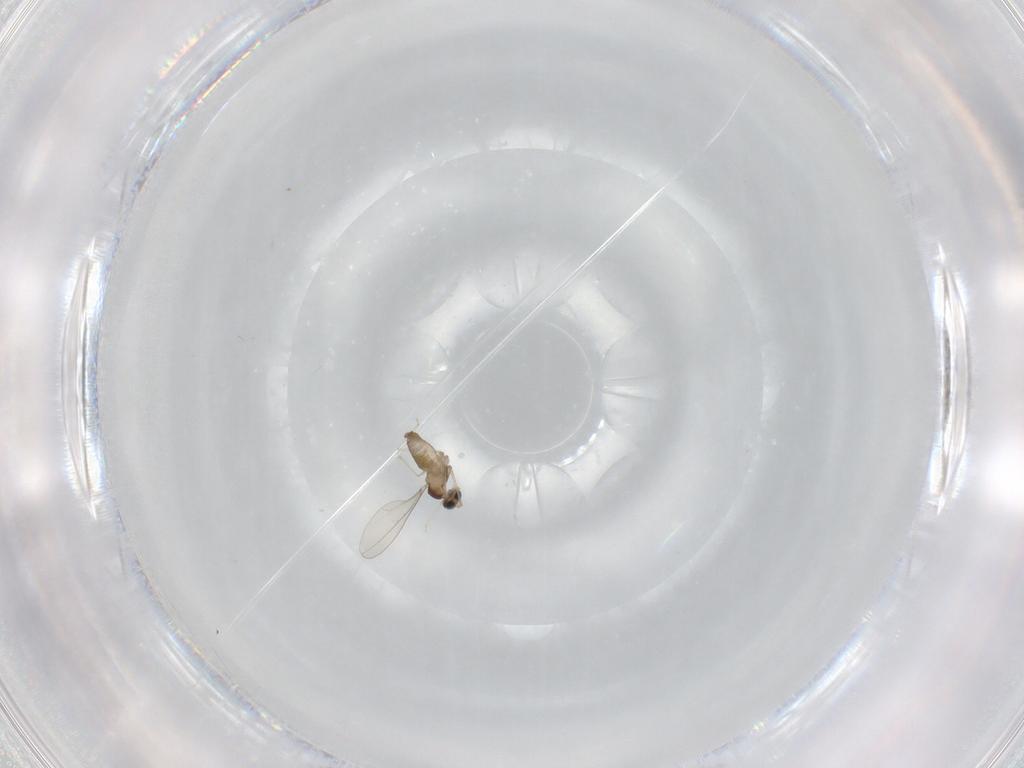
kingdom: Animalia
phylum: Arthropoda
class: Insecta
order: Diptera
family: Cecidomyiidae
